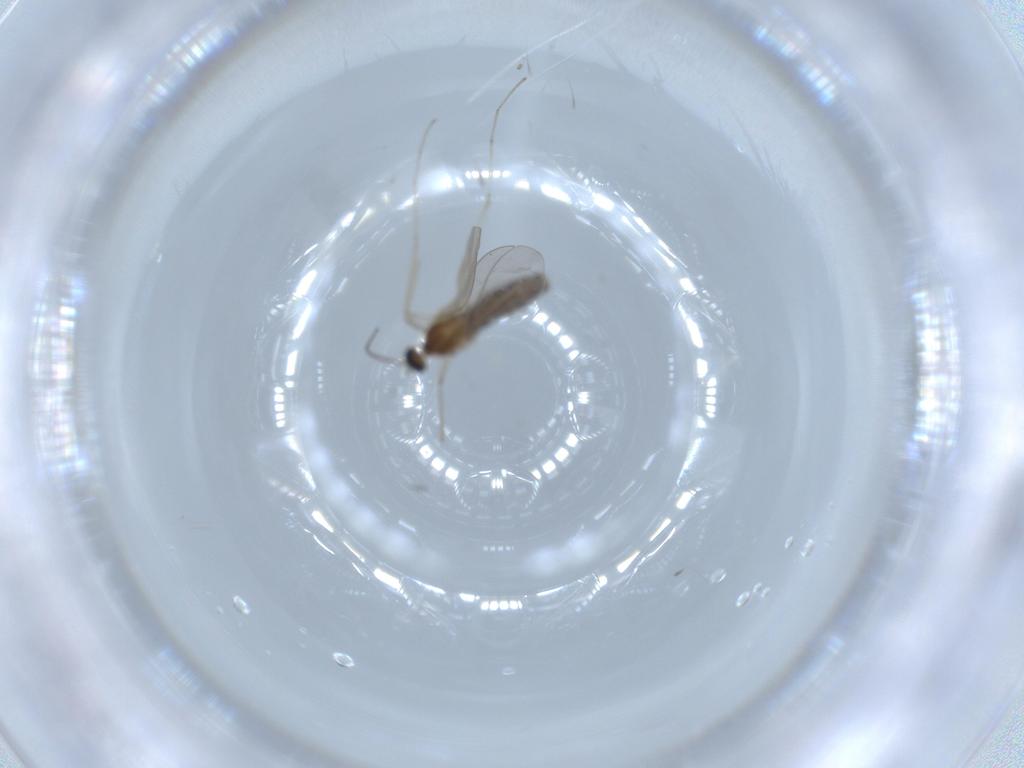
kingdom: Animalia
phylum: Arthropoda
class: Insecta
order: Diptera
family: Cecidomyiidae
